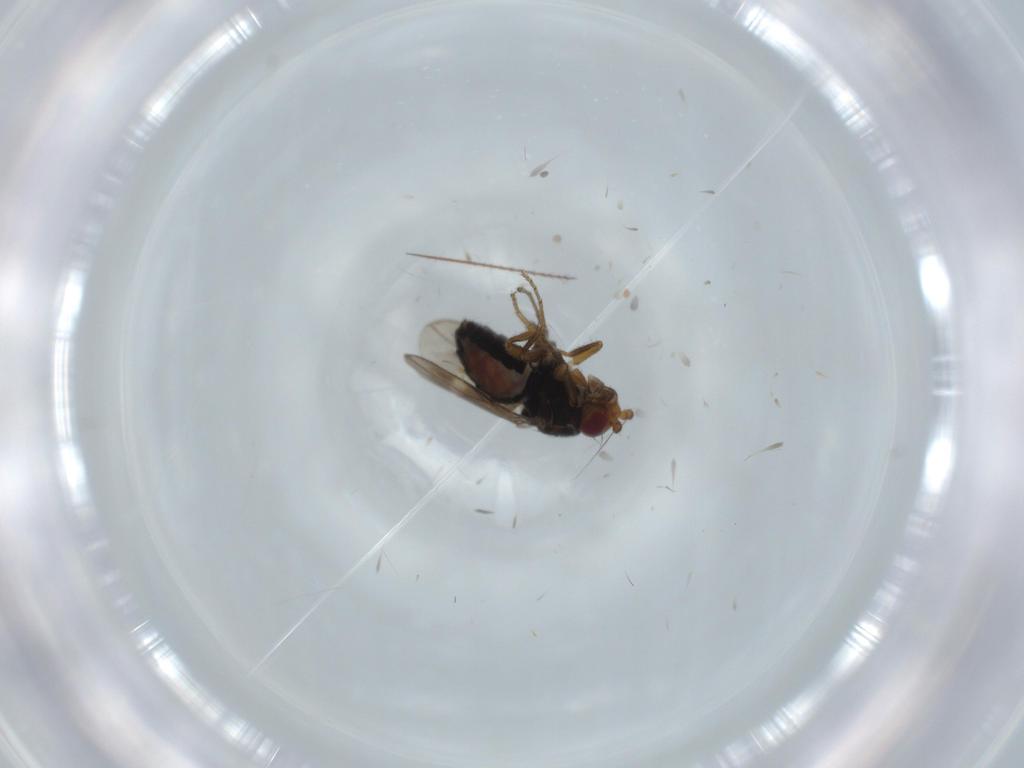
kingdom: Animalia
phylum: Arthropoda
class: Insecta
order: Diptera
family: Sphaeroceridae
